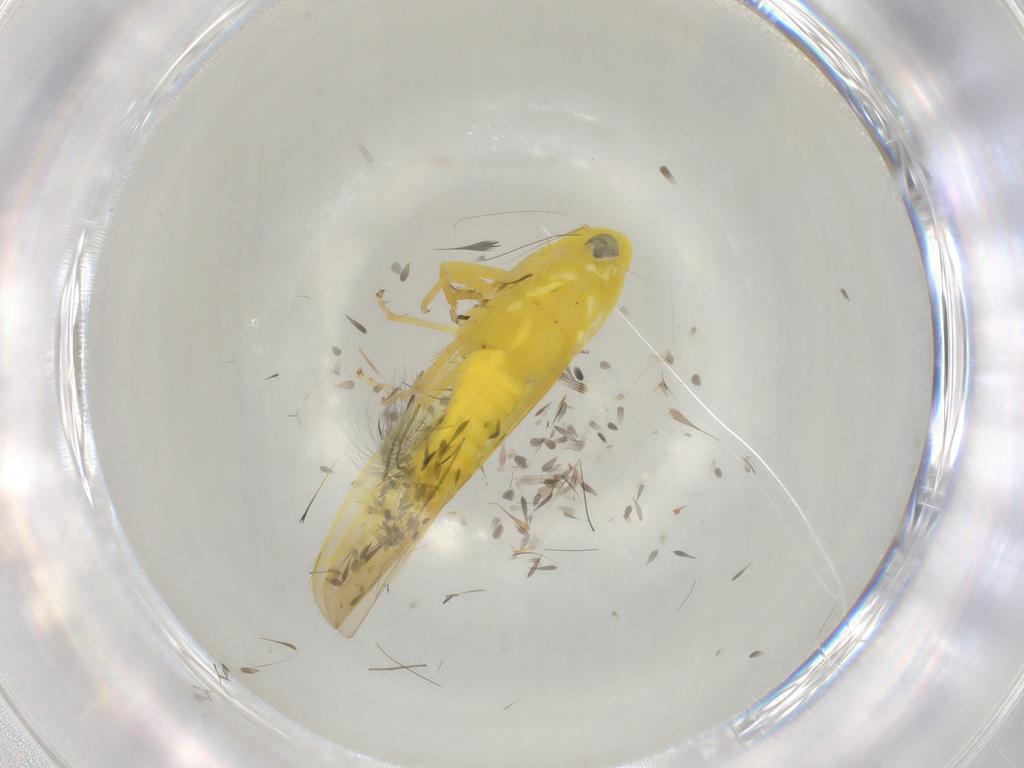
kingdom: Animalia
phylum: Arthropoda
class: Insecta
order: Hemiptera
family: Cicadellidae
